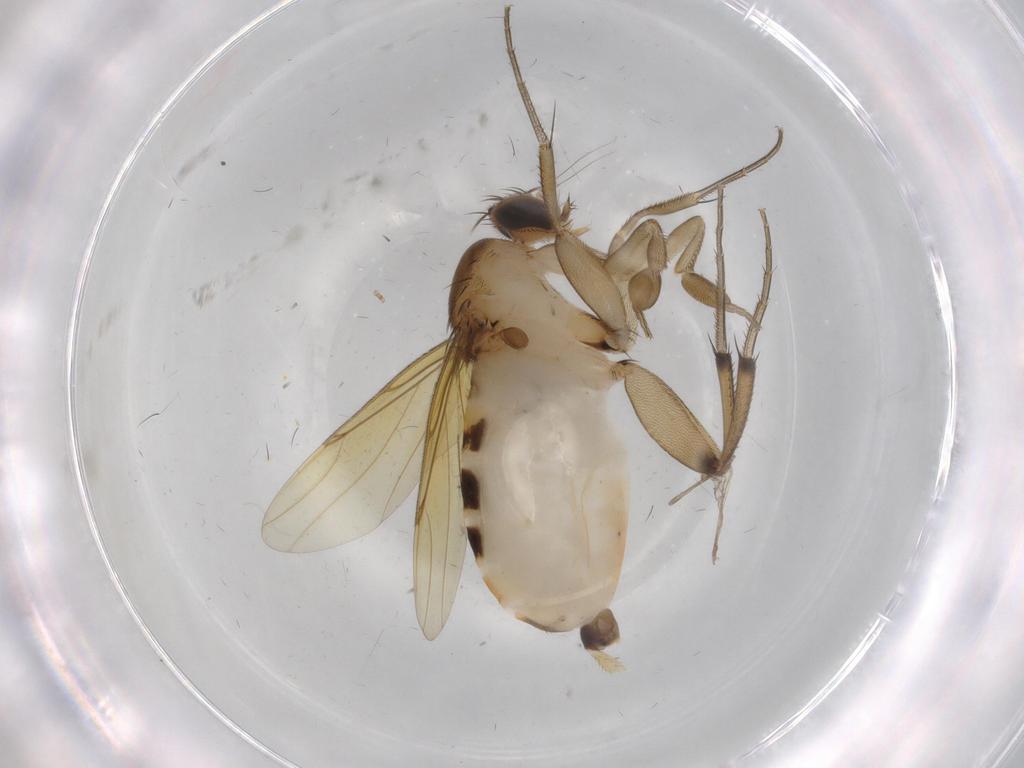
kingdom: Animalia
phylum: Arthropoda
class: Insecta
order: Diptera
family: Phoridae
